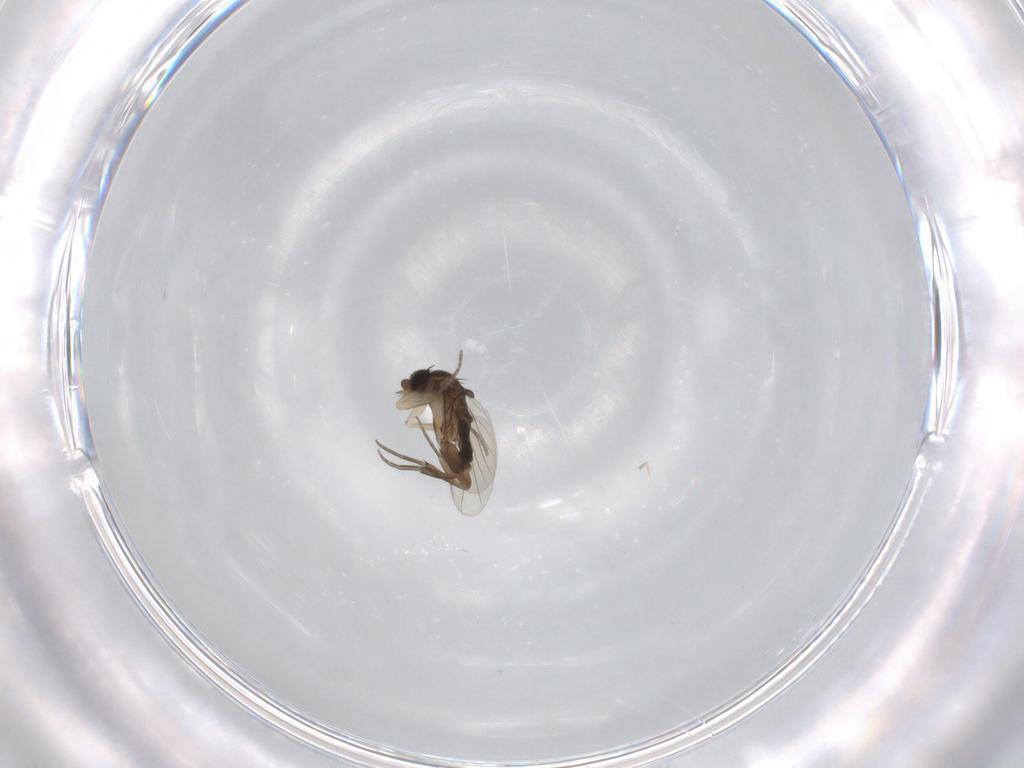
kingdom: Animalia
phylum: Arthropoda
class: Insecta
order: Diptera
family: Phoridae
